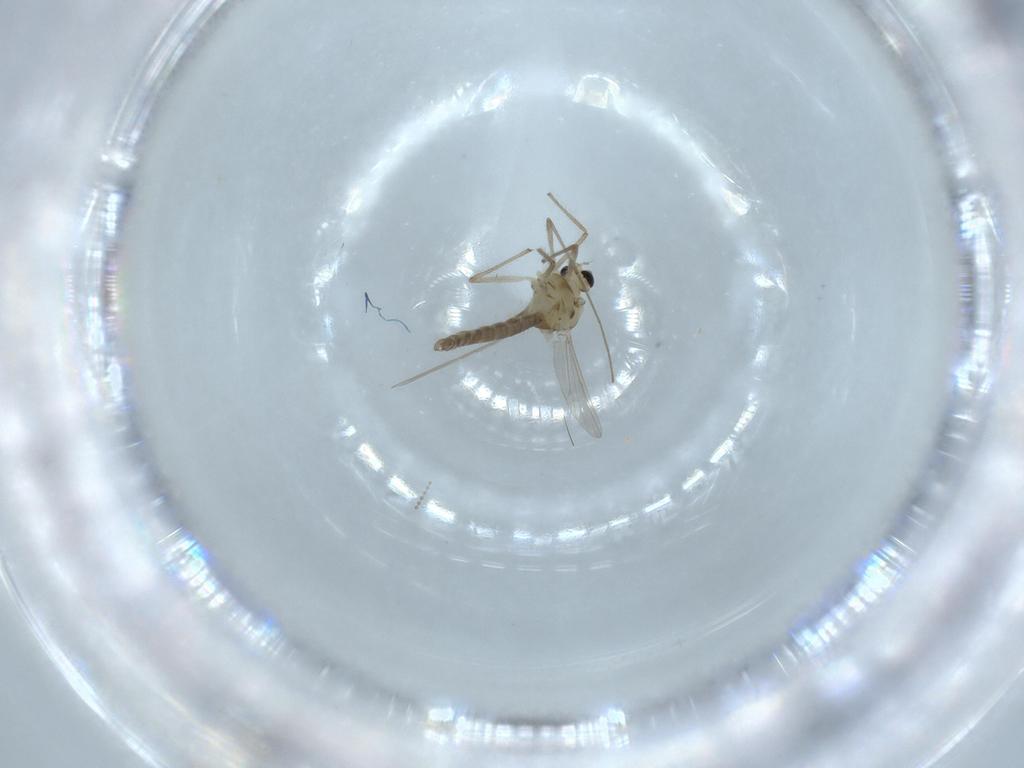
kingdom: Animalia
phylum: Arthropoda
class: Insecta
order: Diptera
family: Chironomidae
